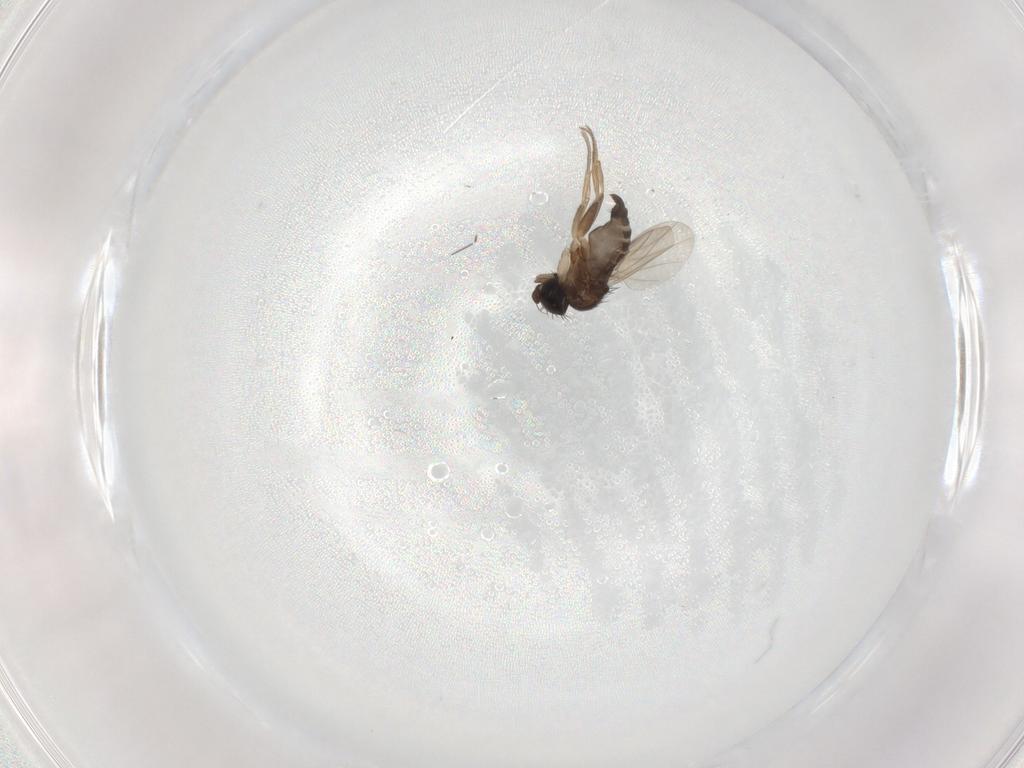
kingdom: Animalia
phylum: Arthropoda
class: Insecta
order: Diptera
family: Phoridae
